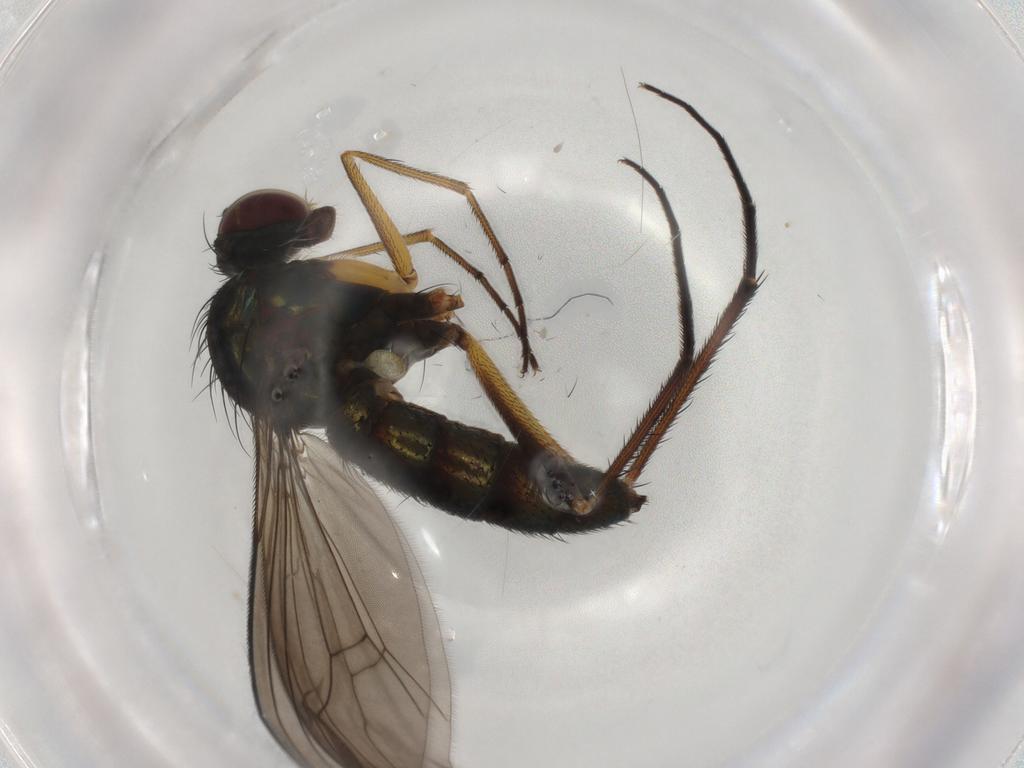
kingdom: Animalia
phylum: Arthropoda
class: Insecta
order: Diptera
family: Dolichopodidae
